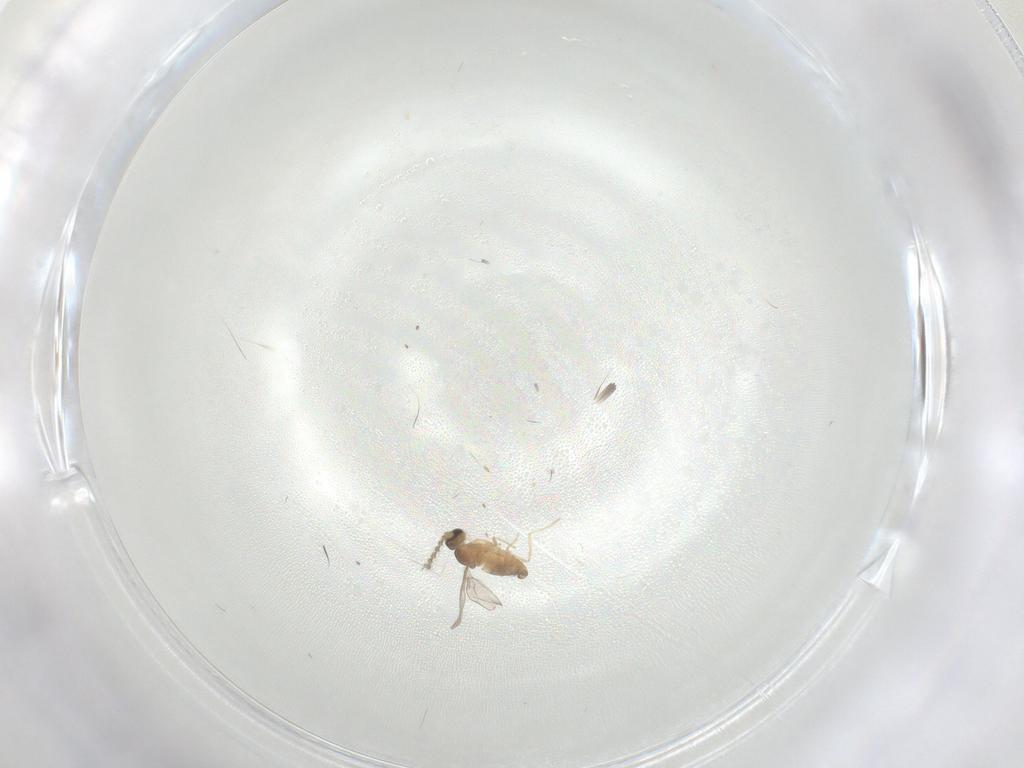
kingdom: Animalia
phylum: Arthropoda
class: Insecta
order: Diptera
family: Cecidomyiidae
